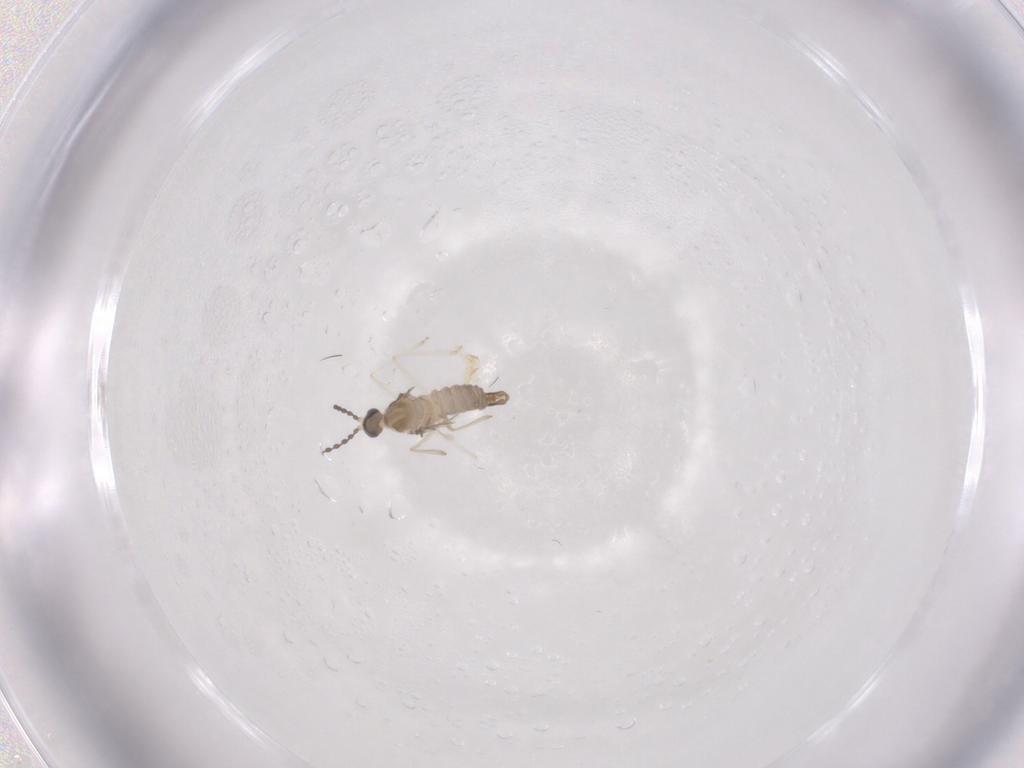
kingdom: Animalia
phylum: Arthropoda
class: Insecta
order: Diptera
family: Cecidomyiidae
